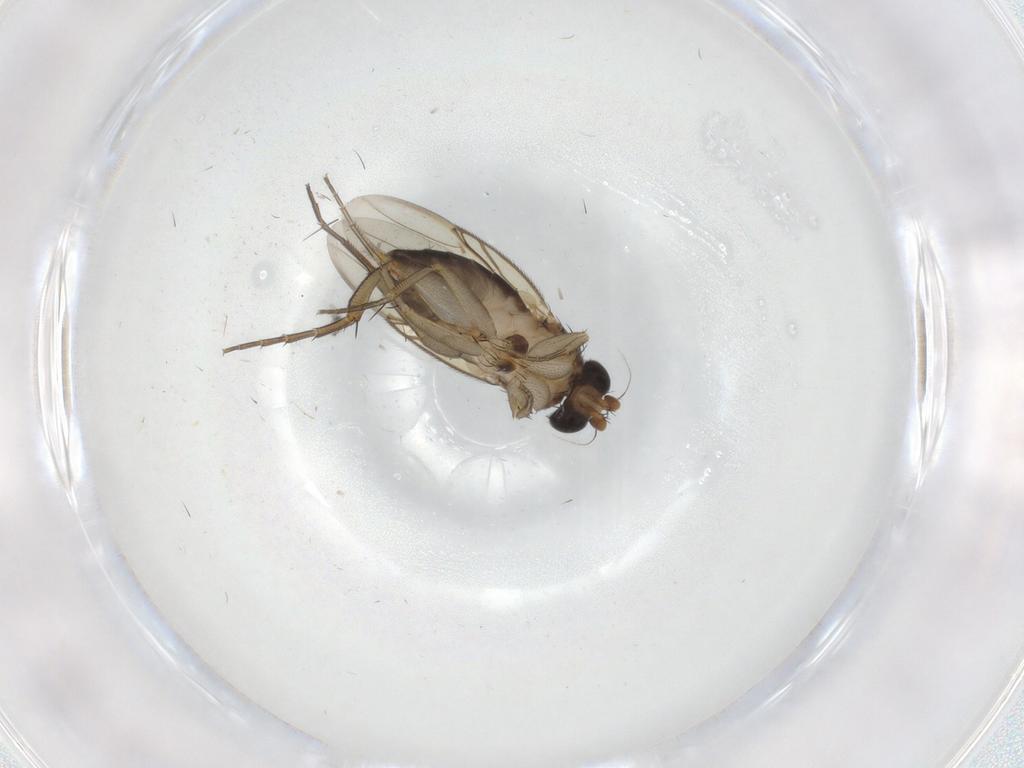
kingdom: Animalia
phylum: Arthropoda
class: Insecta
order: Diptera
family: Phoridae
